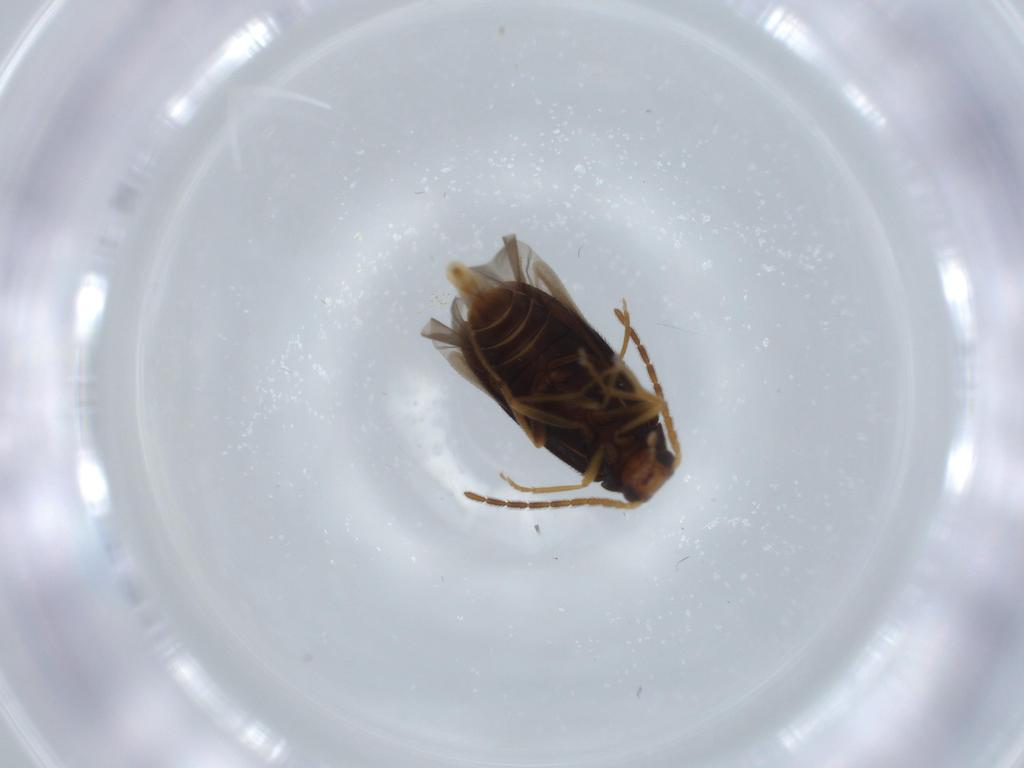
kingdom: Animalia
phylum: Arthropoda
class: Insecta
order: Coleoptera
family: Melandryidae
